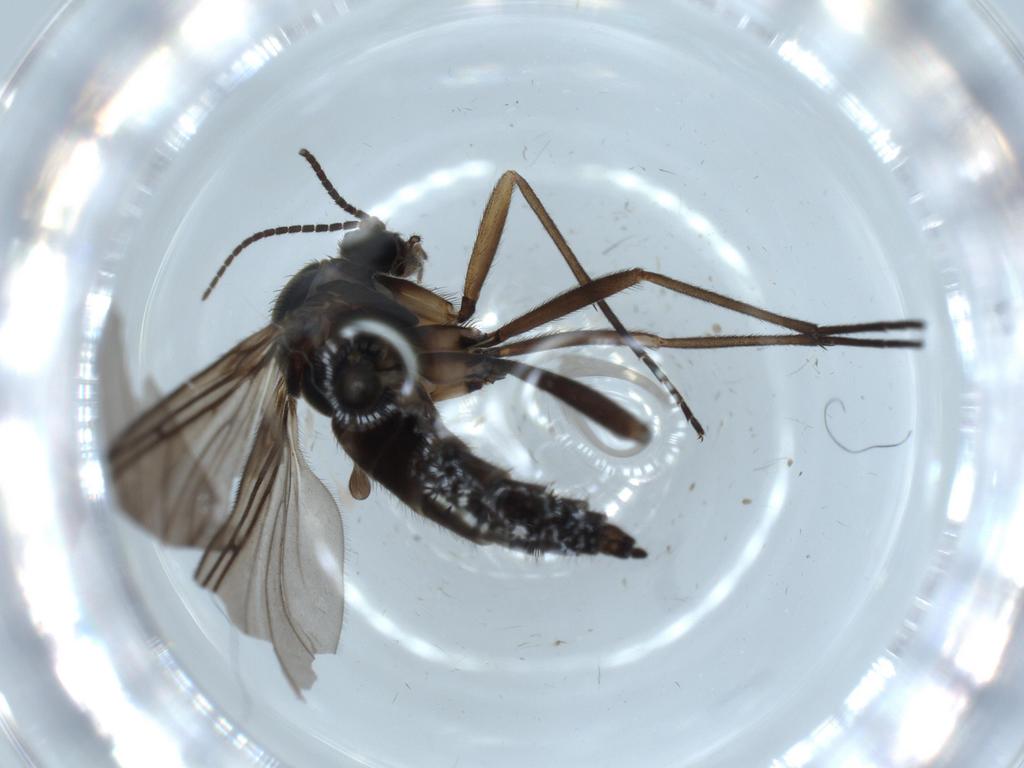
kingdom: Animalia
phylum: Arthropoda
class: Insecta
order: Diptera
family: Sciaridae
